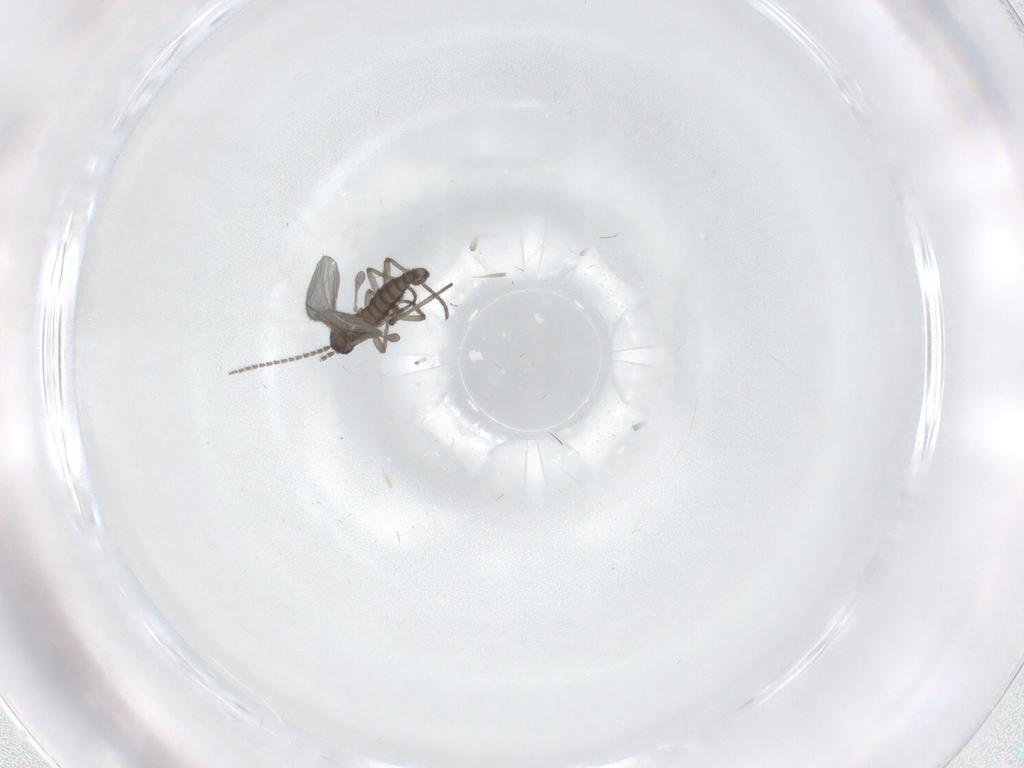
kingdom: Animalia
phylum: Arthropoda
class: Insecta
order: Diptera
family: Sciaridae
